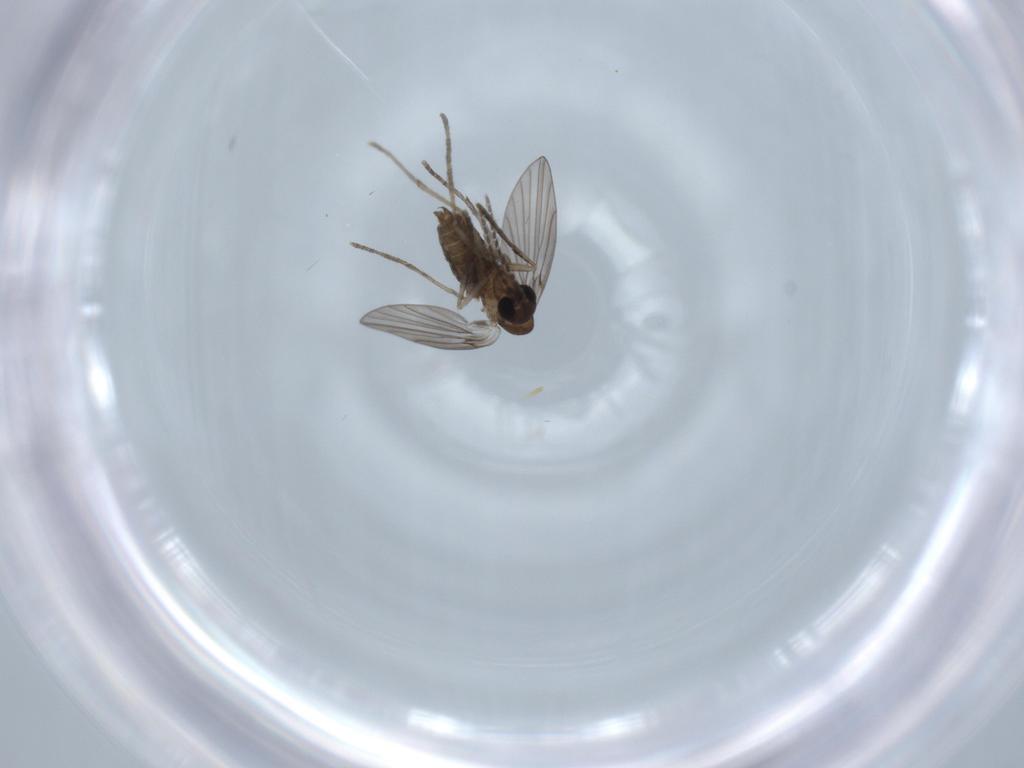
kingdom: Animalia
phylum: Arthropoda
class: Insecta
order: Diptera
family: Psychodidae
